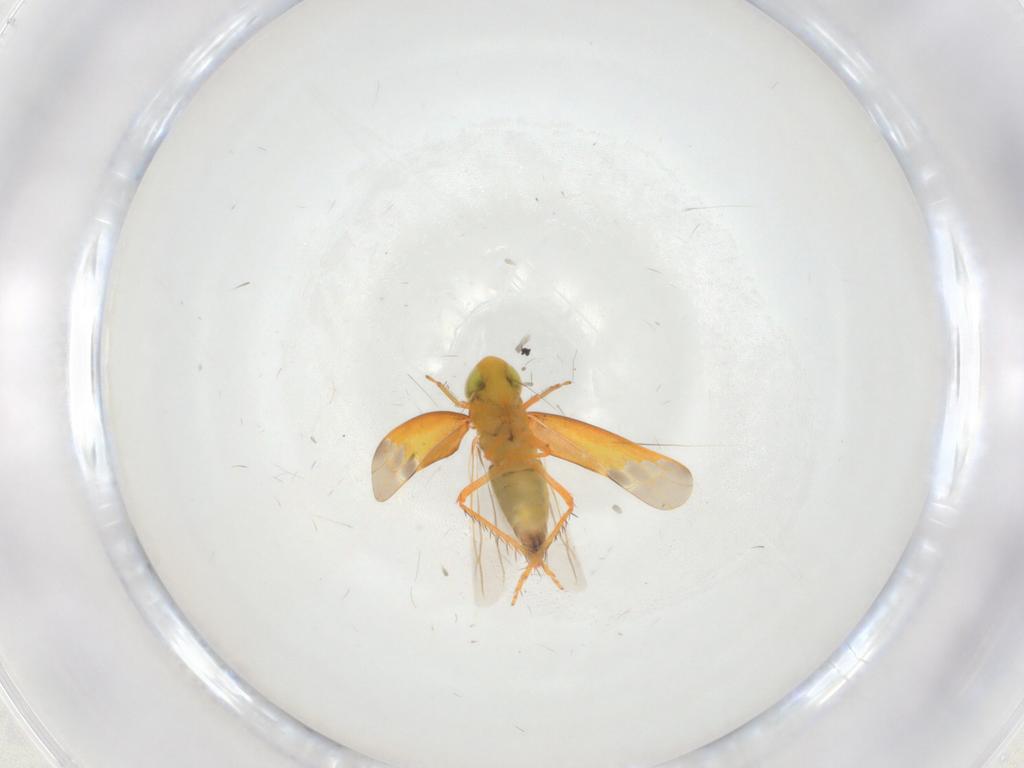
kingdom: Animalia
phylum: Arthropoda
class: Insecta
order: Hemiptera
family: Cicadellidae
